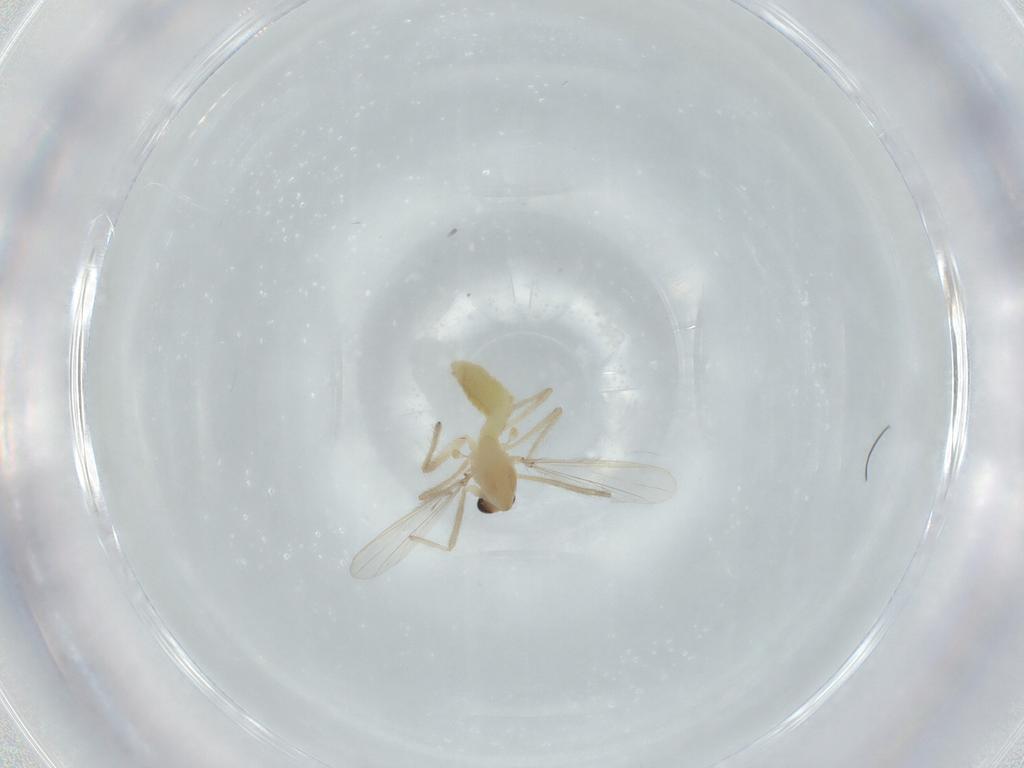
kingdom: Animalia
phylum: Arthropoda
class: Insecta
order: Diptera
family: Chironomidae
